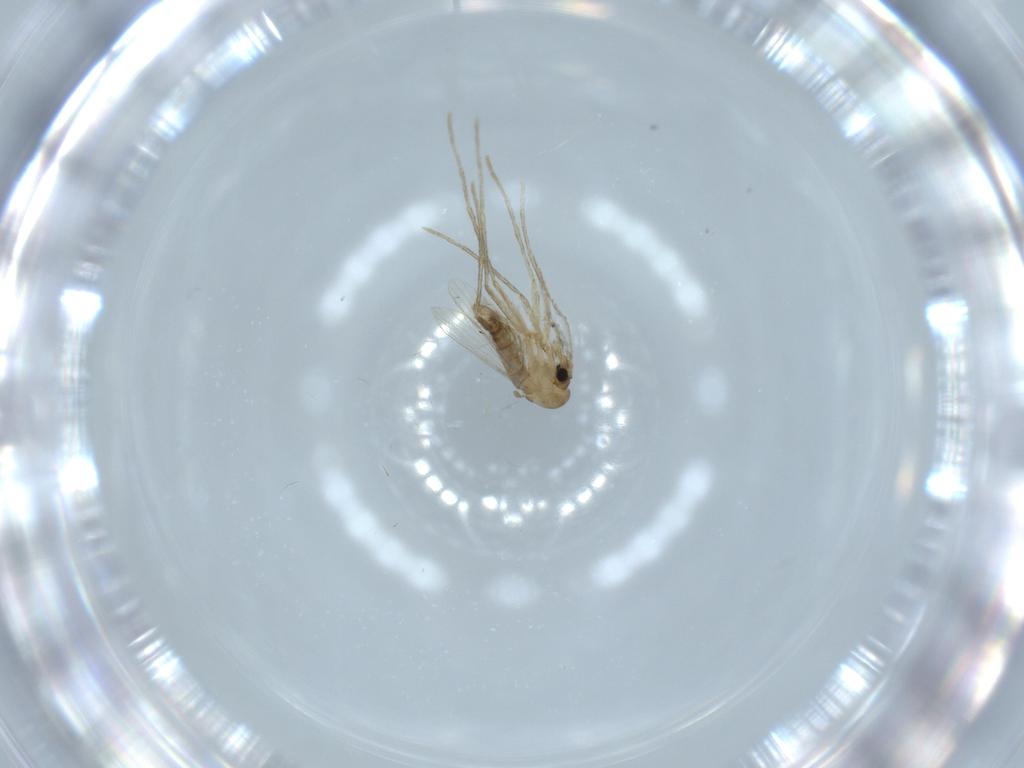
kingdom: Animalia
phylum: Arthropoda
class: Insecta
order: Diptera
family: Psychodidae
